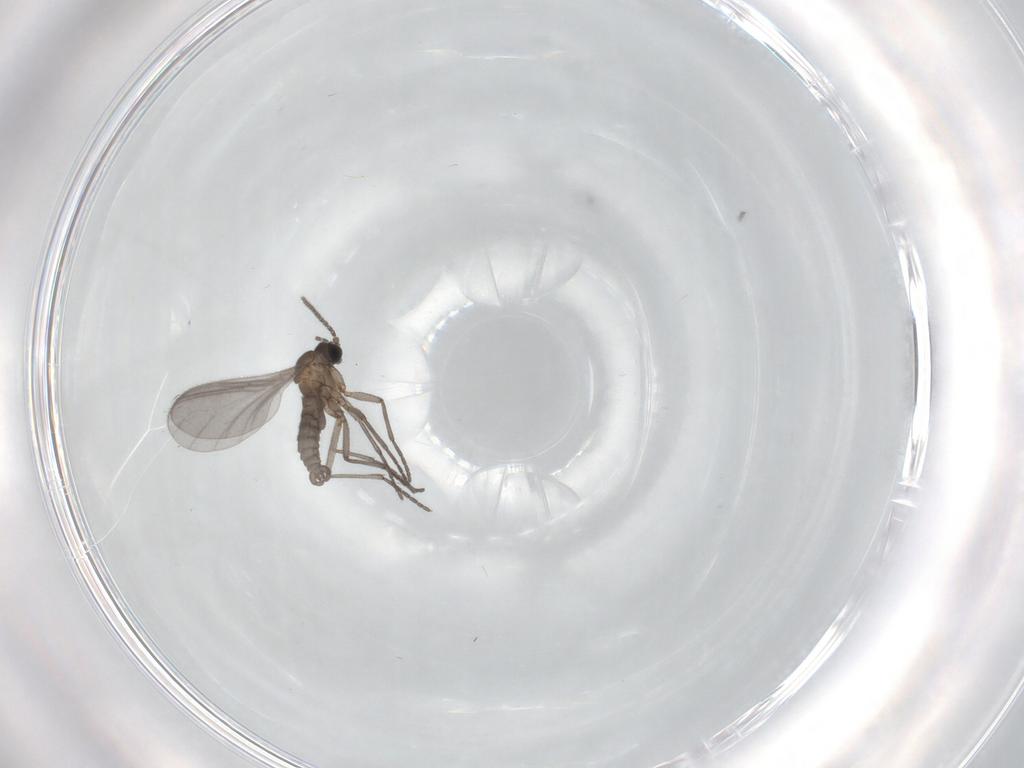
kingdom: Animalia
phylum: Arthropoda
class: Insecta
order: Diptera
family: Sciaridae
